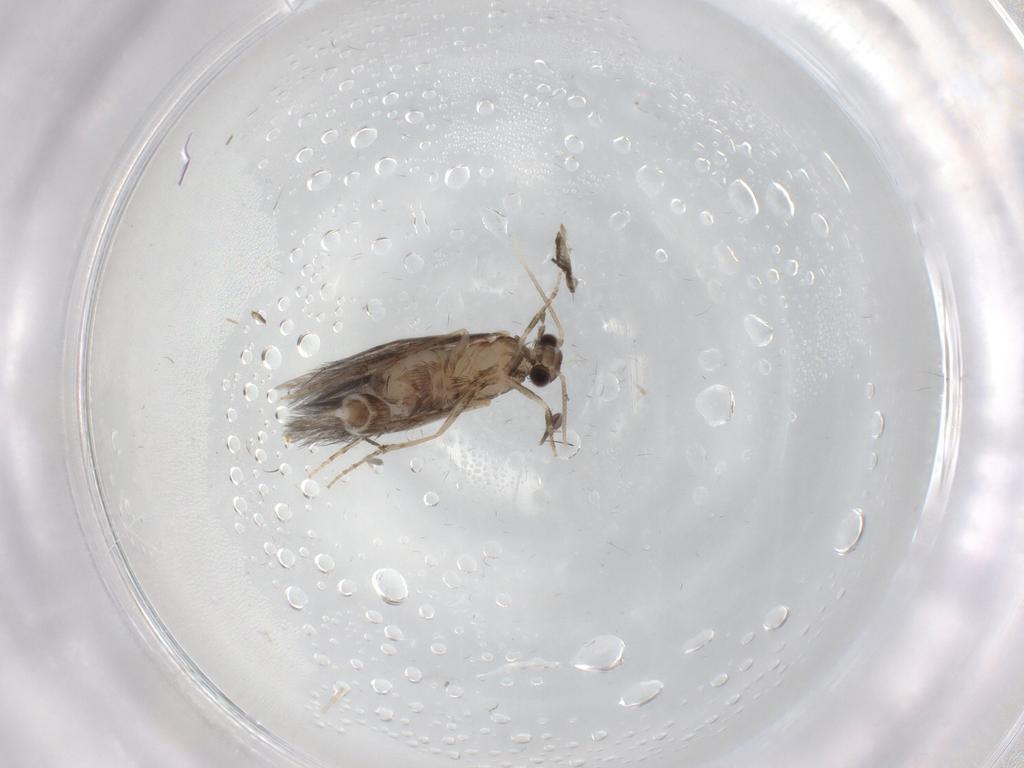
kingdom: Animalia
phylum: Arthropoda
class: Insecta
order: Trichoptera
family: Hydroptilidae
